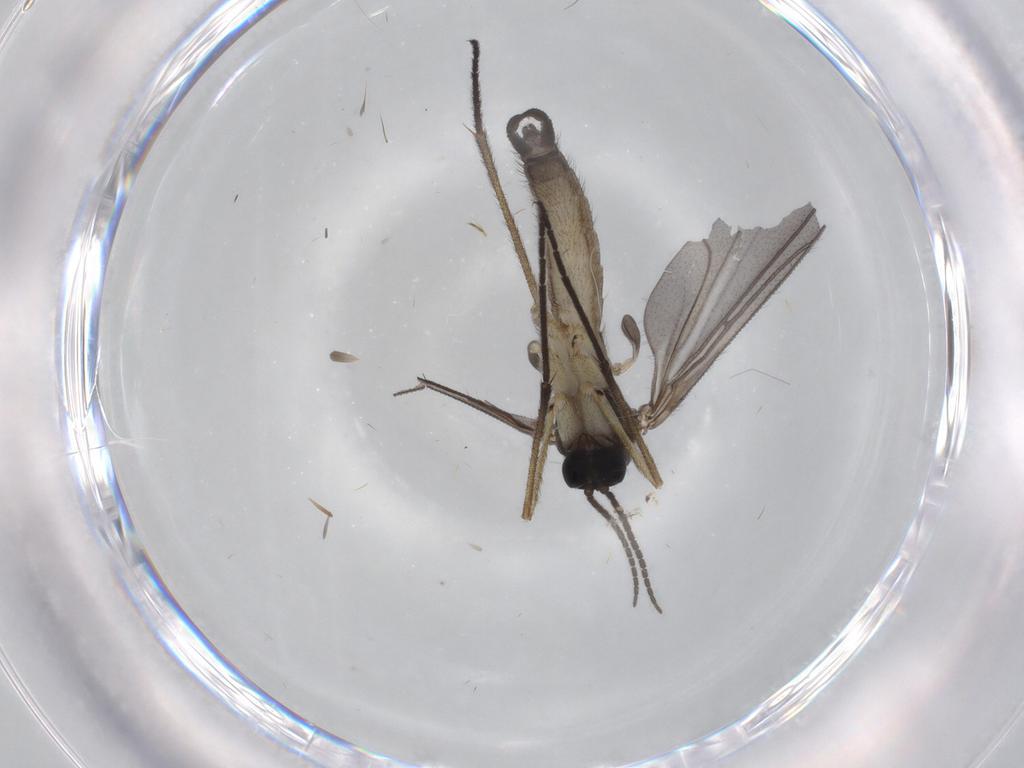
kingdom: Animalia
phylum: Arthropoda
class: Insecta
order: Diptera
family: Sciaridae
